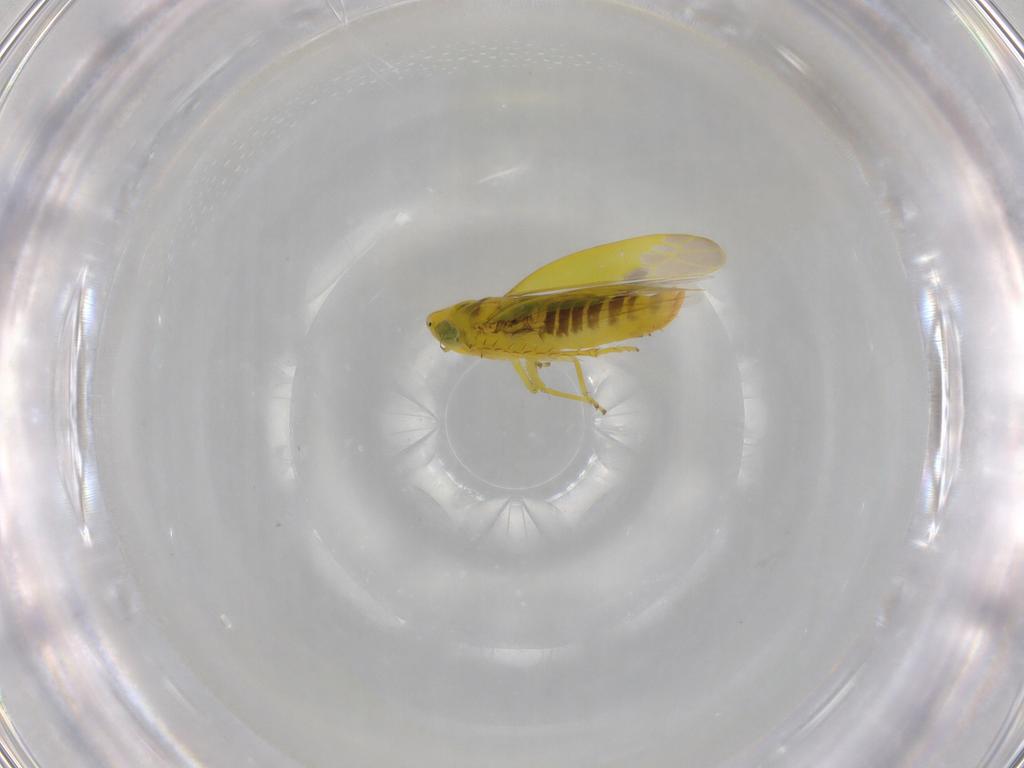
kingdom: Animalia
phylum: Arthropoda
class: Insecta
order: Hemiptera
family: Cicadellidae
